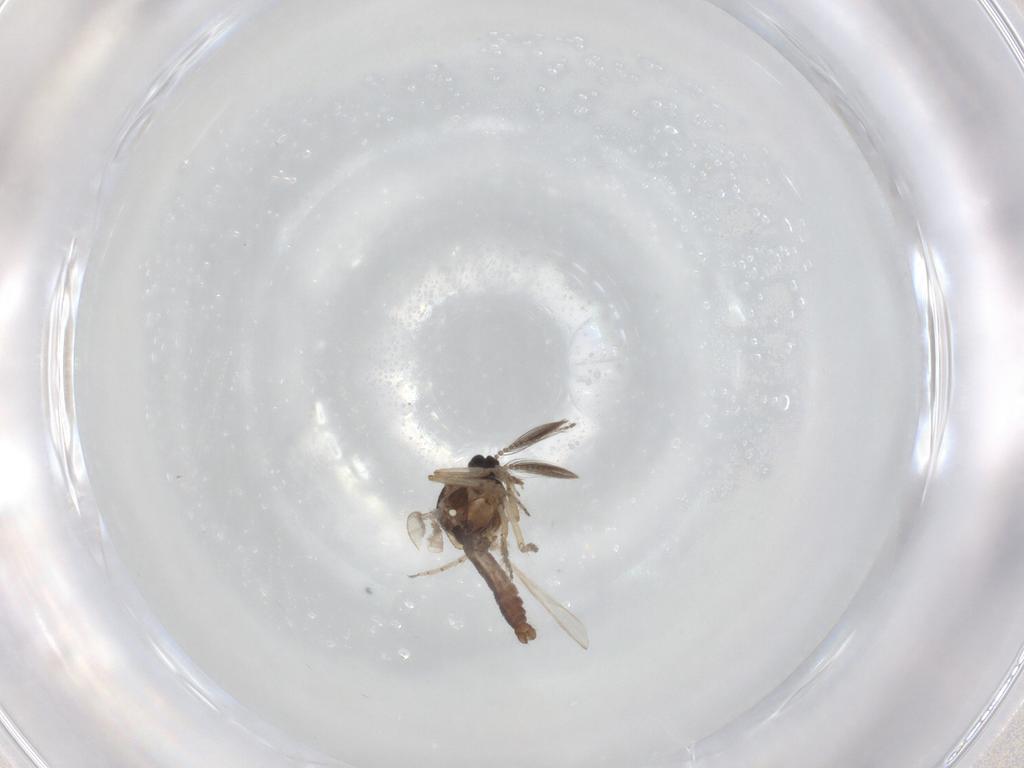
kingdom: Animalia
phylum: Arthropoda
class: Insecta
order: Diptera
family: Ceratopogonidae
